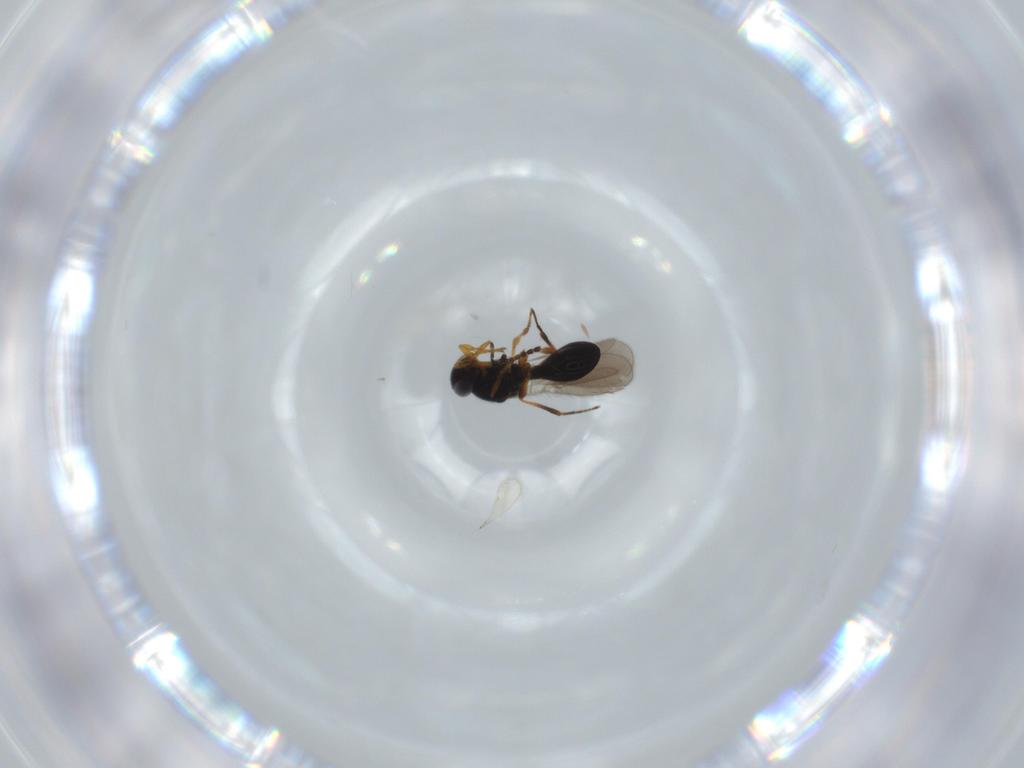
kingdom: Animalia
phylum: Arthropoda
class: Insecta
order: Hymenoptera
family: Platygastridae
